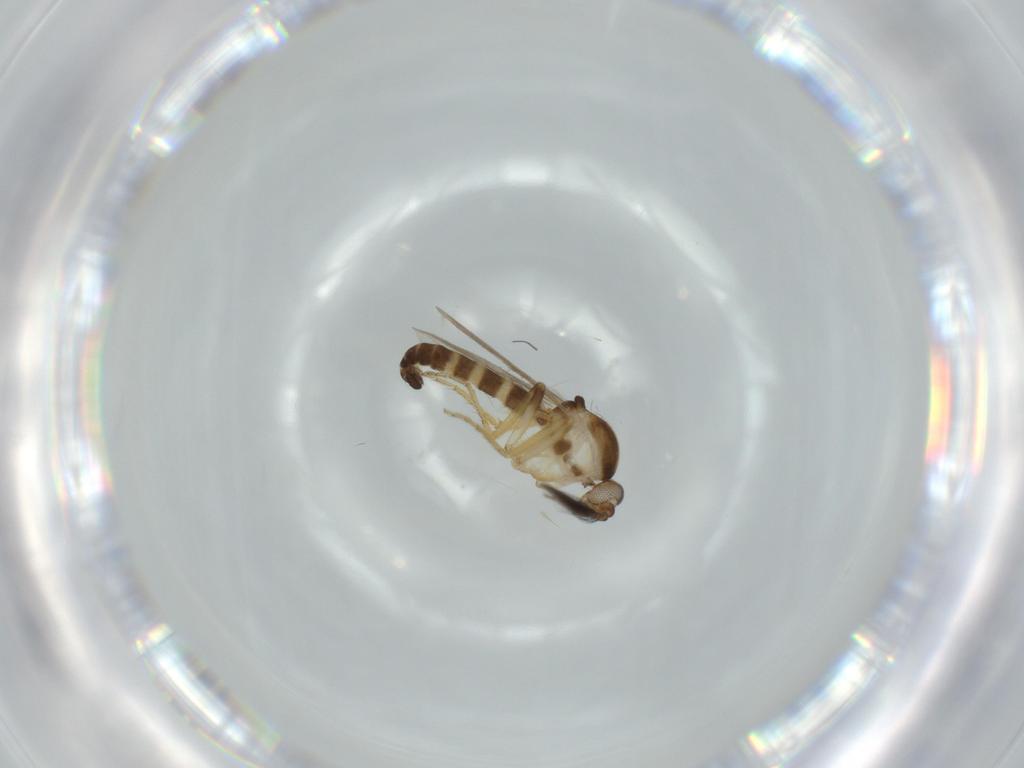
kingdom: Animalia
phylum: Arthropoda
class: Insecta
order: Diptera
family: Ceratopogonidae
